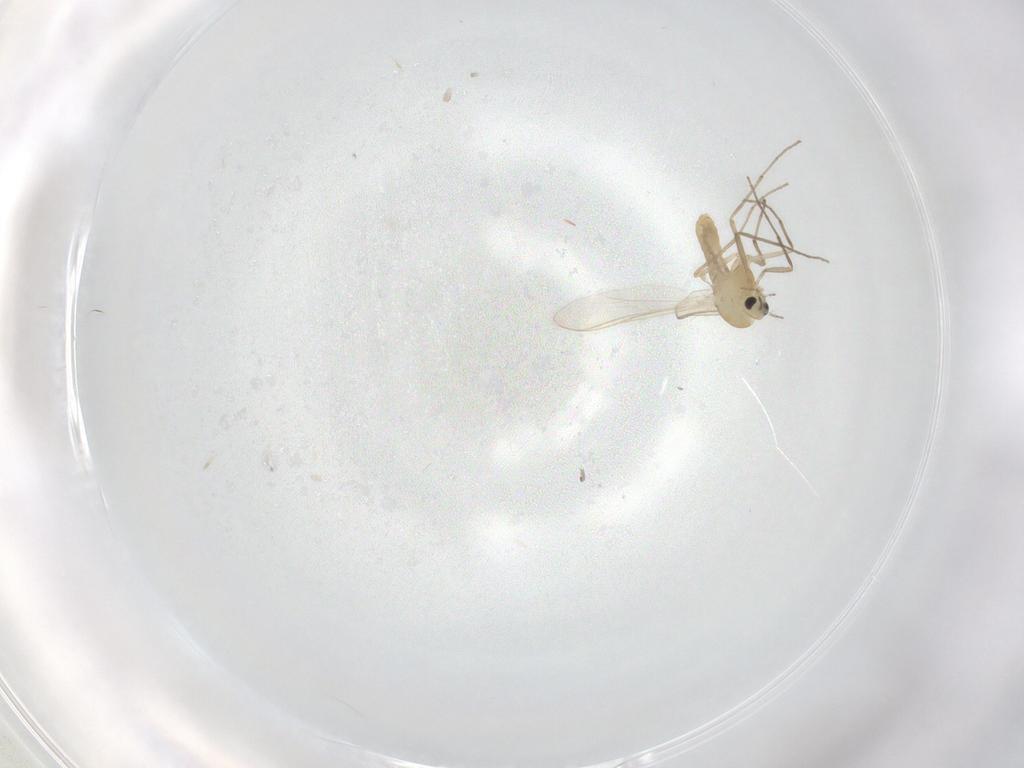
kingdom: Animalia
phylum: Arthropoda
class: Insecta
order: Diptera
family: Chironomidae
